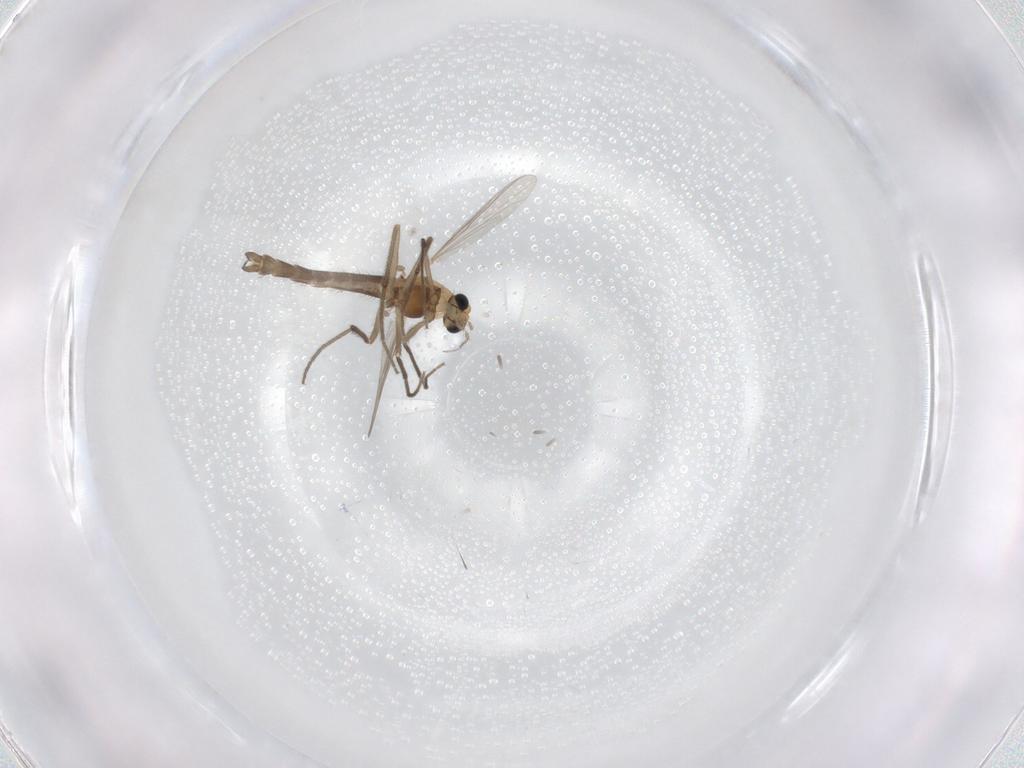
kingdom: Animalia
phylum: Arthropoda
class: Insecta
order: Diptera
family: Chironomidae
